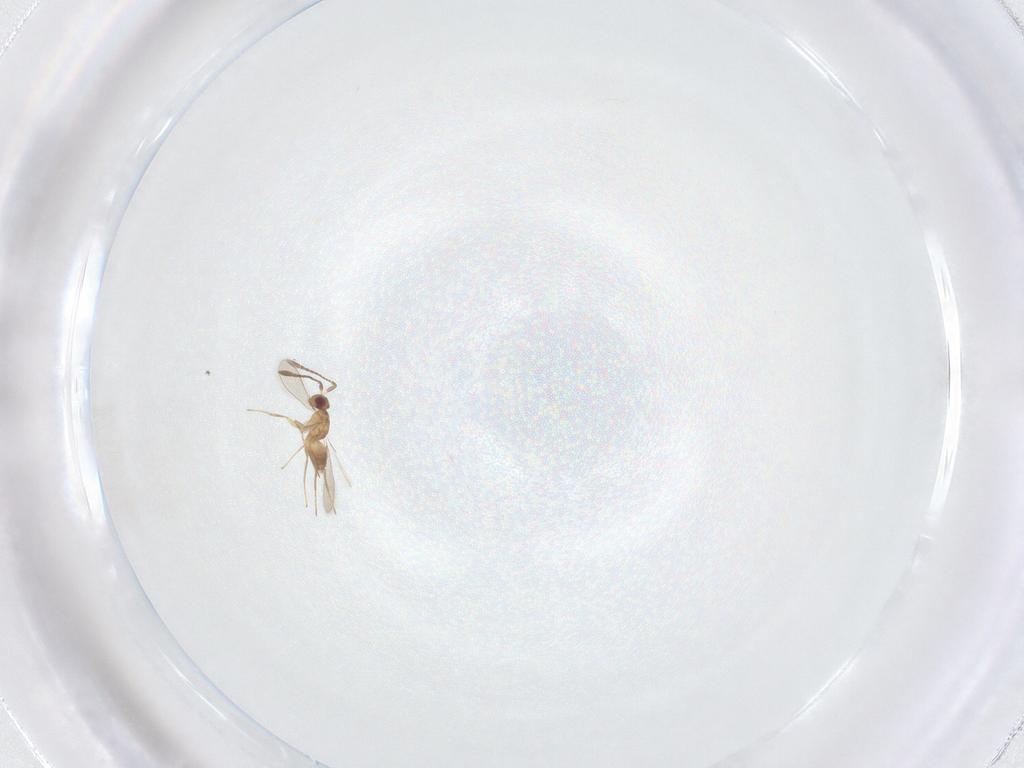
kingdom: Animalia
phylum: Arthropoda
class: Insecta
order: Hymenoptera
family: Mymaridae
